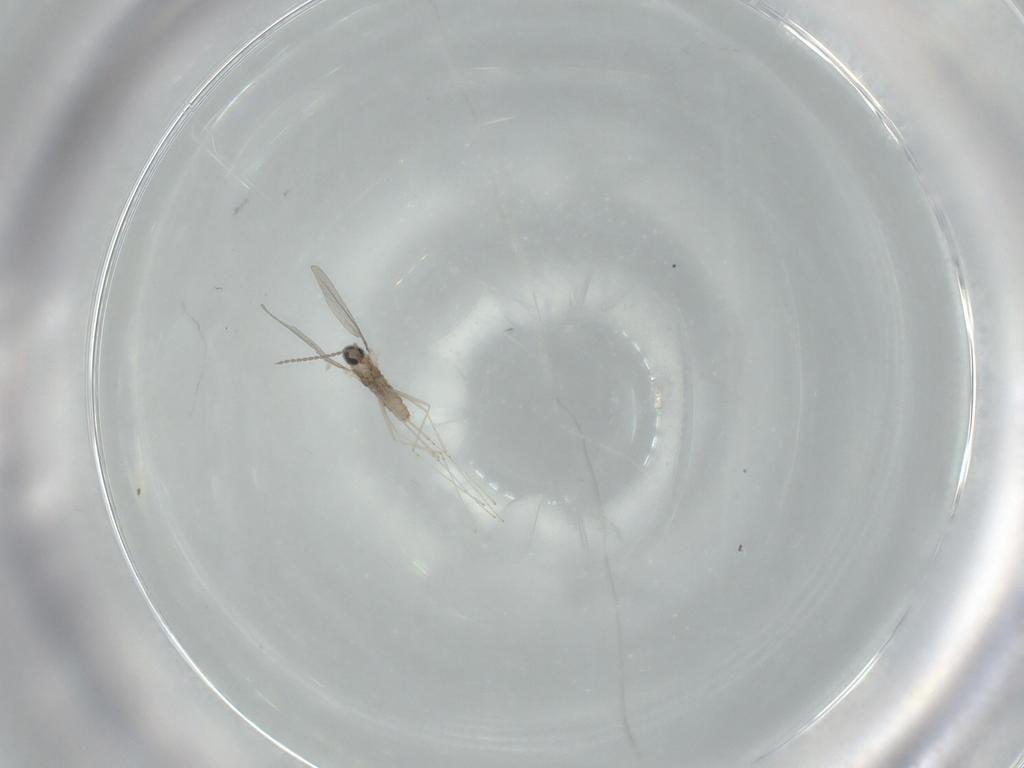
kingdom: Animalia
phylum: Arthropoda
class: Insecta
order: Diptera
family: Cecidomyiidae
